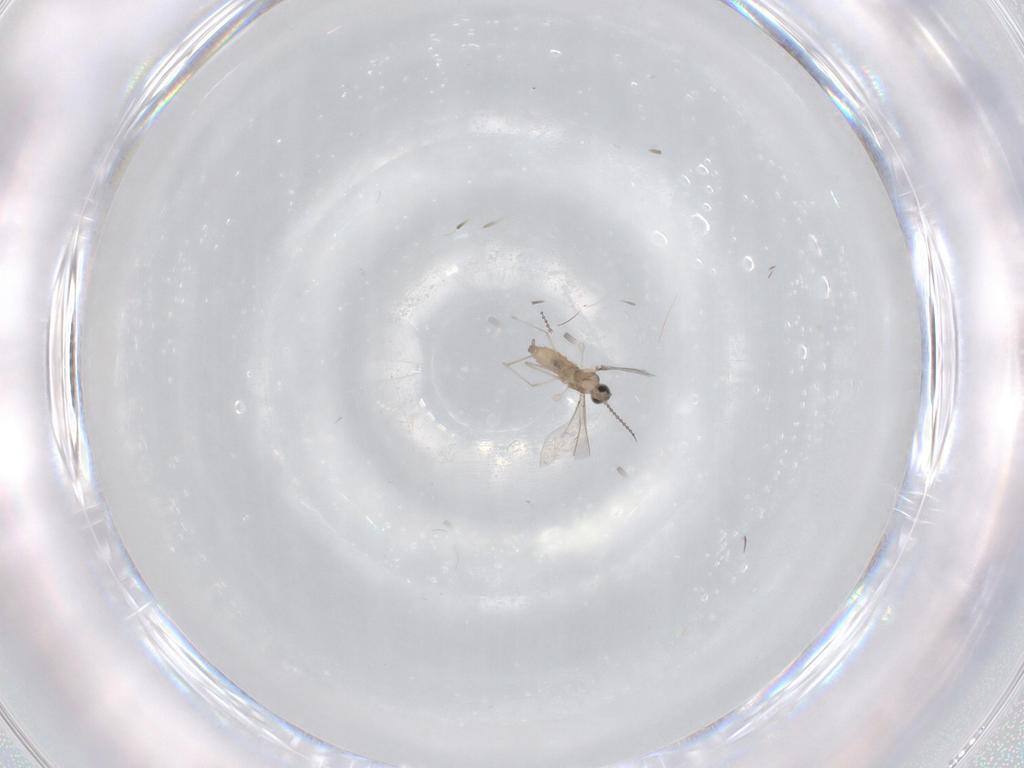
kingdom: Animalia
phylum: Arthropoda
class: Insecta
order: Diptera
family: Cecidomyiidae
